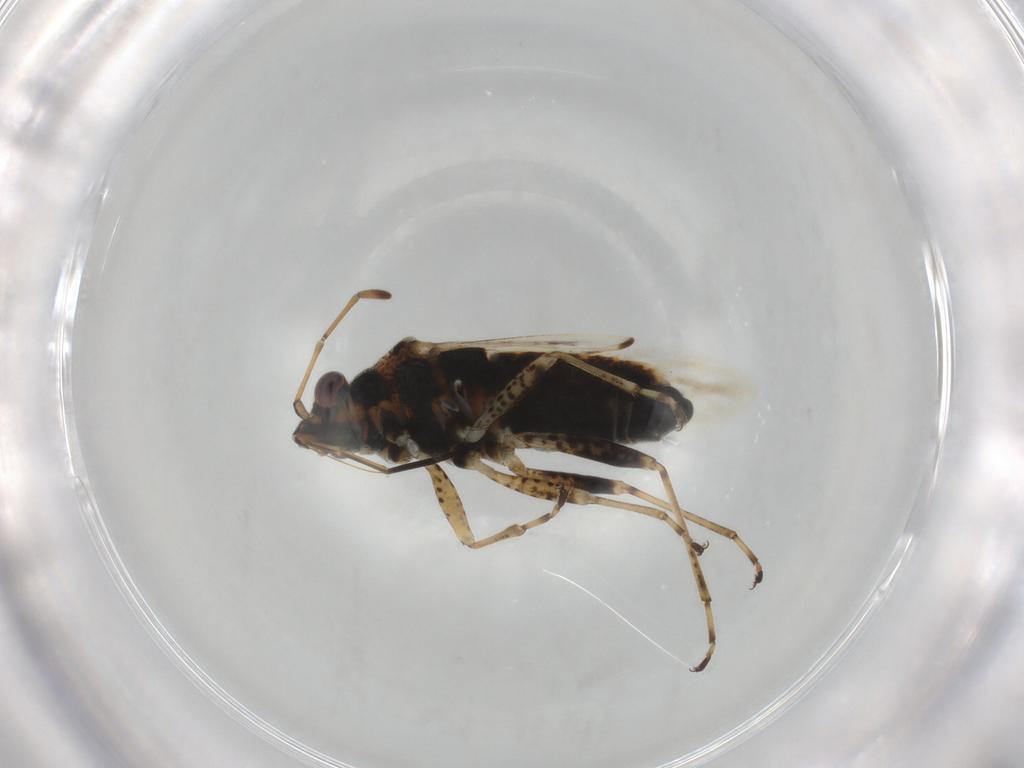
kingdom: Animalia
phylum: Arthropoda
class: Insecta
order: Hemiptera
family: Lygaeidae
